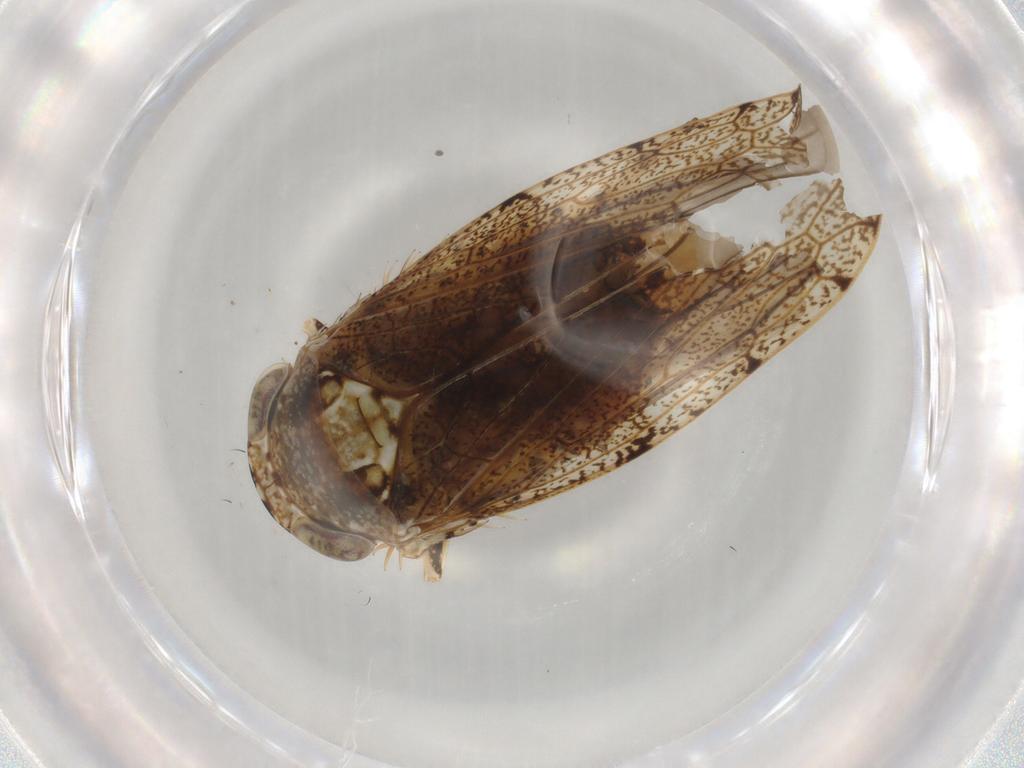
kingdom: Animalia
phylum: Arthropoda
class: Insecta
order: Hemiptera
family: Cicadellidae
